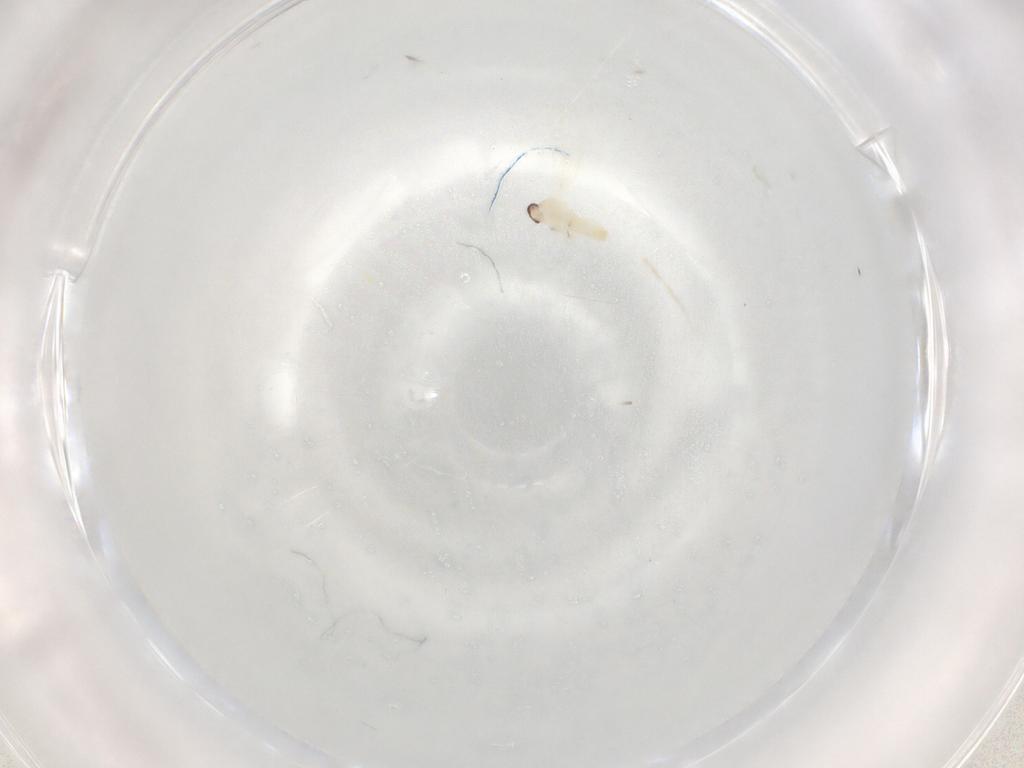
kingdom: Animalia
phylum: Arthropoda
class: Insecta
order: Diptera
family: Cecidomyiidae
